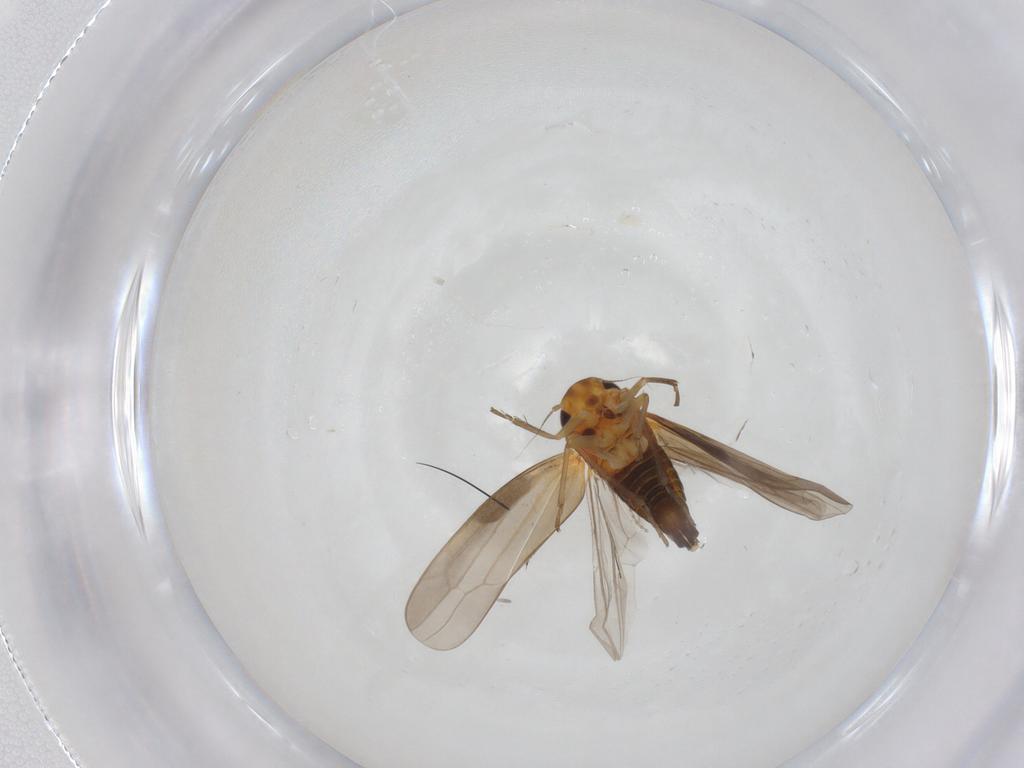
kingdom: Animalia
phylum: Arthropoda
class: Insecta
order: Hemiptera
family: Cicadellidae
